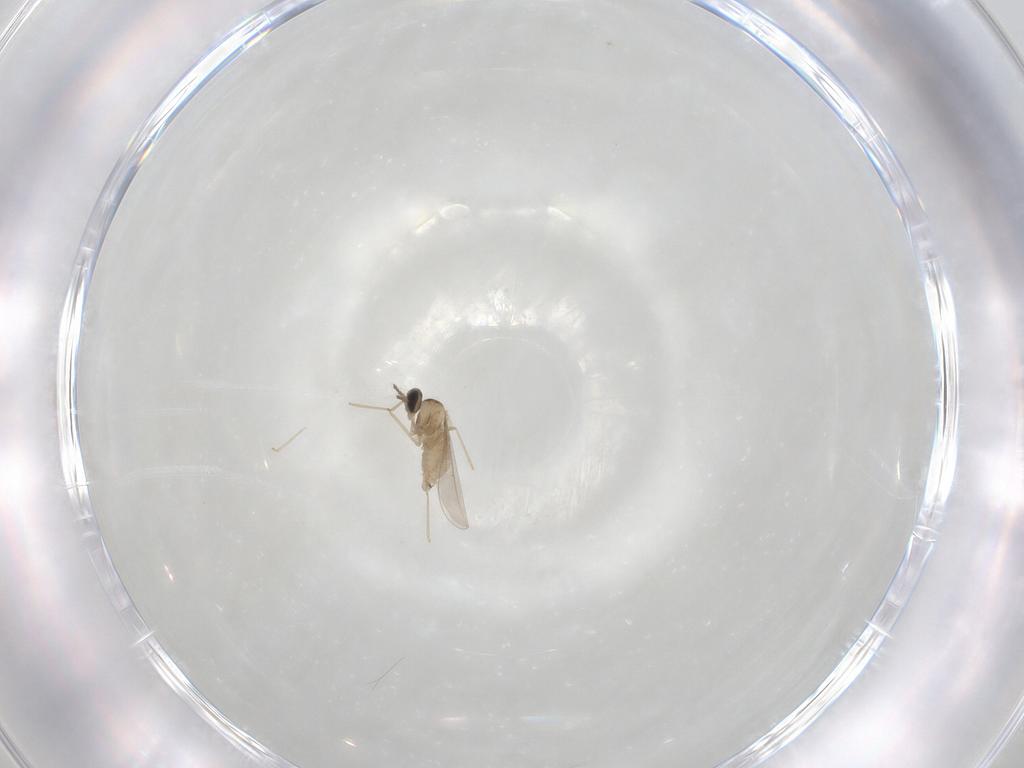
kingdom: Animalia
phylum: Arthropoda
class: Insecta
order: Diptera
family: Cecidomyiidae
